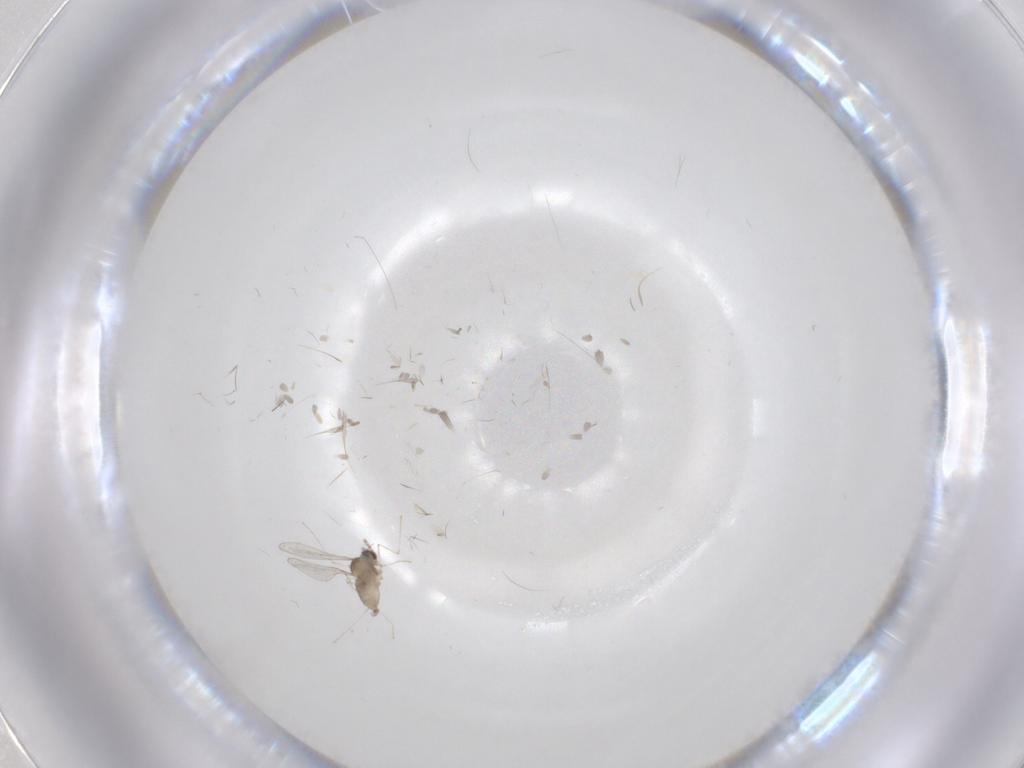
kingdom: Animalia
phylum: Arthropoda
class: Insecta
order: Diptera
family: Cecidomyiidae
